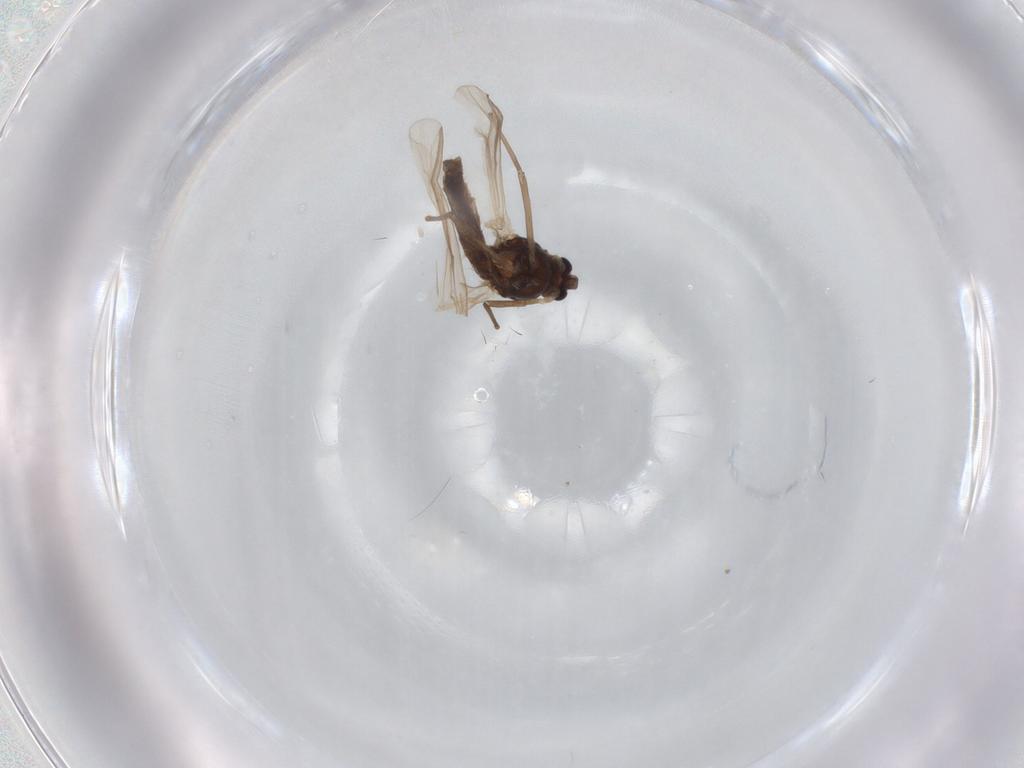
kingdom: Animalia
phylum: Arthropoda
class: Insecta
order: Diptera
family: Chironomidae
